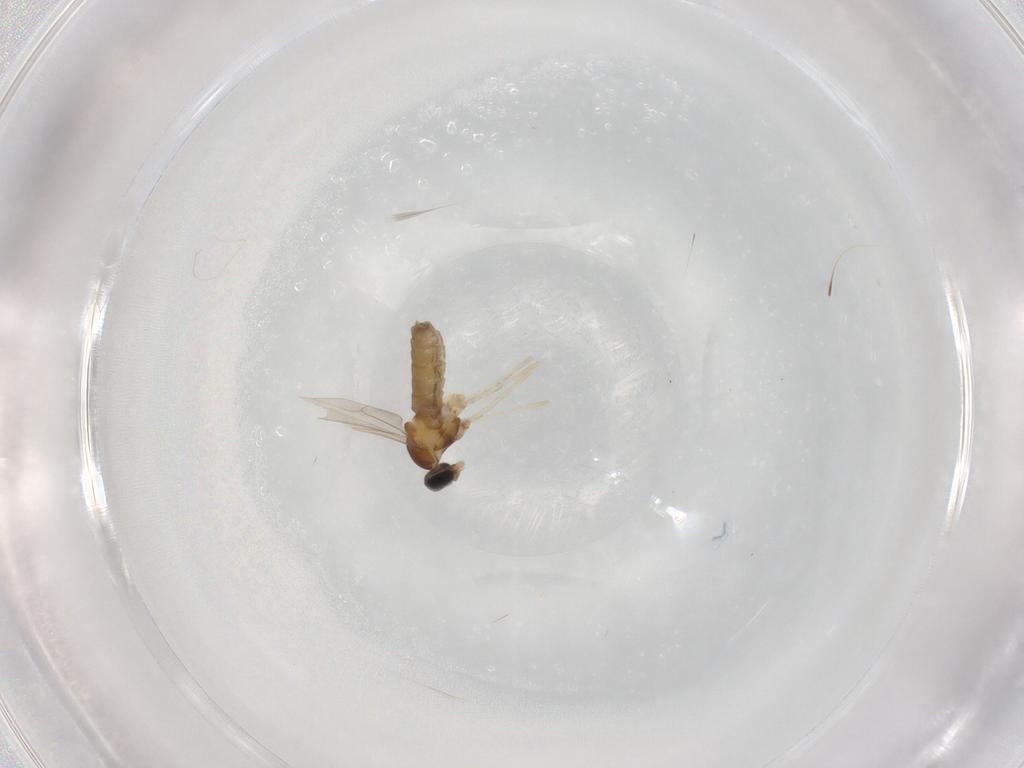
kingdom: Animalia
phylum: Arthropoda
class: Insecta
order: Diptera
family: Cecidomyiidae
